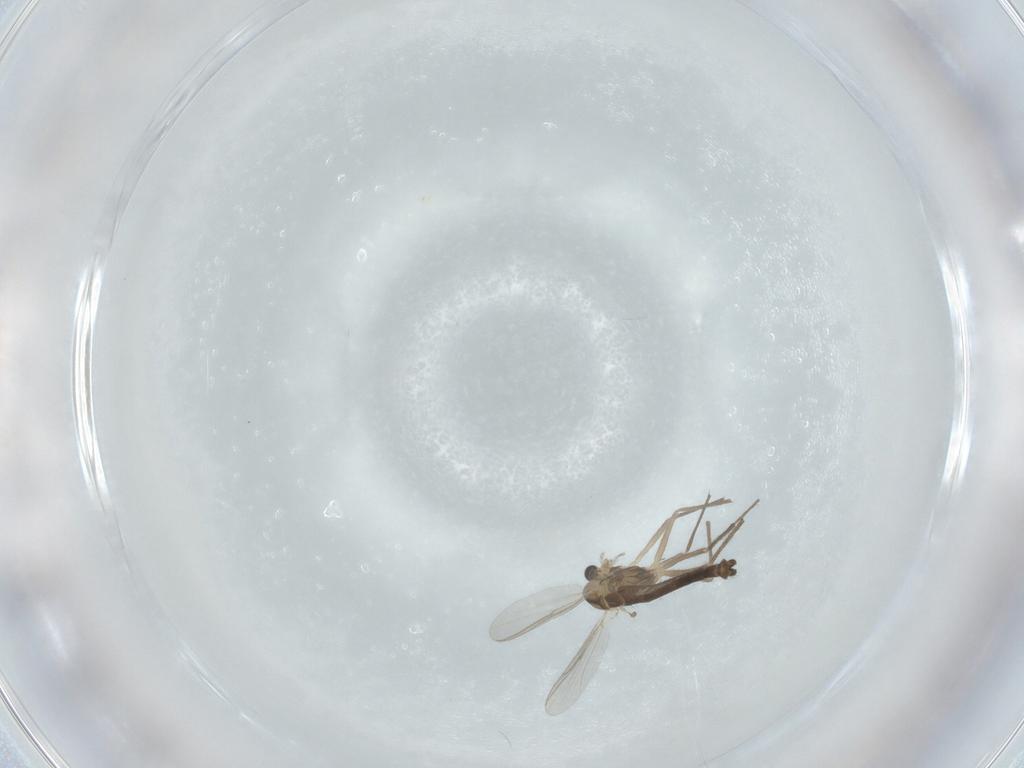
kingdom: Animalia
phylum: Arthropoda
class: Insecta
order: Diptera
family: Chironomidae
